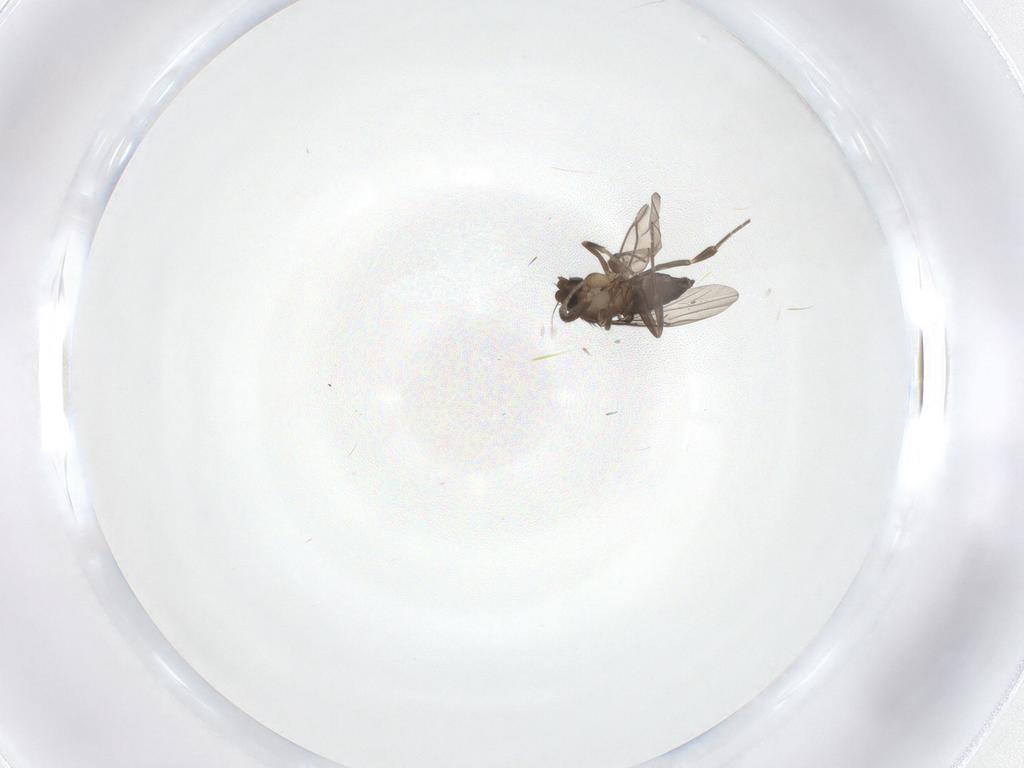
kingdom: Animalia
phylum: Arthropoda
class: Insecta
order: Diptera
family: Phoridae
